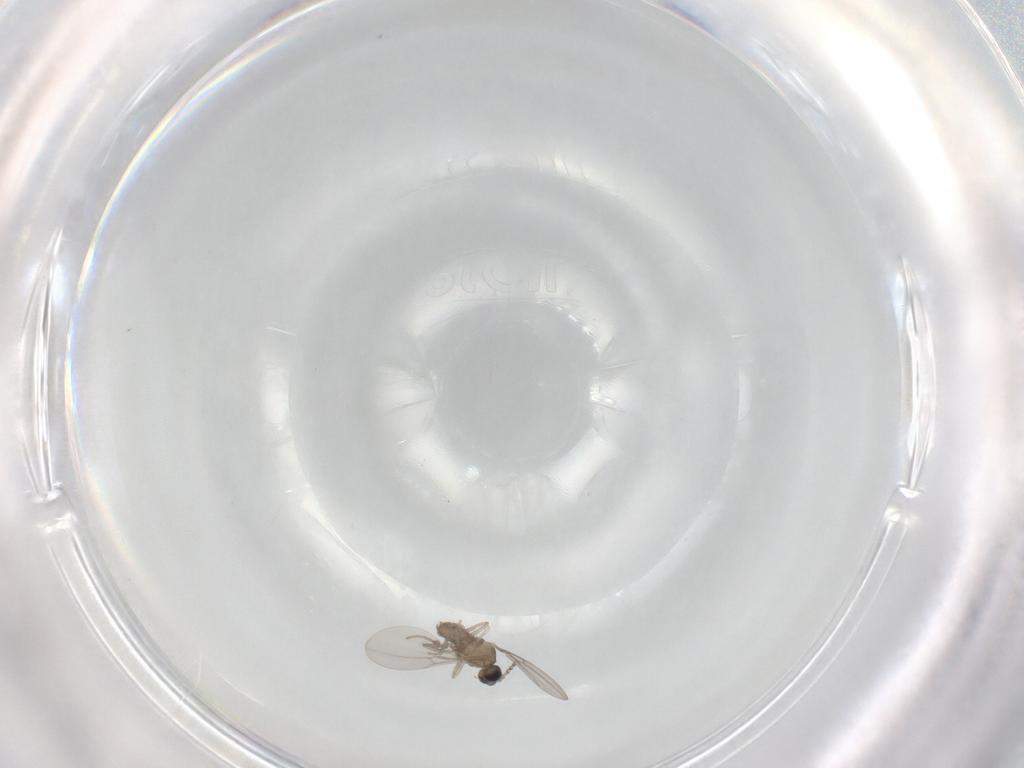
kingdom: Animalia
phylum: Arthropoda
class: Insecta
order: Diptera
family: Cecidomyiidae
